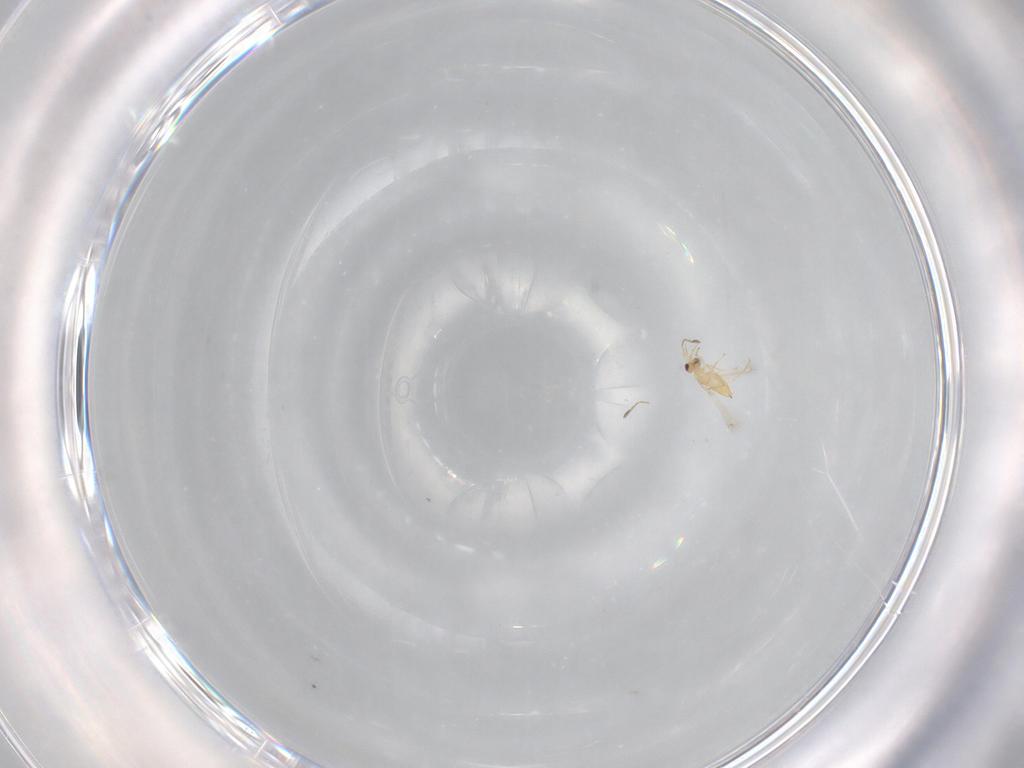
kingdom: Animalia
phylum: Arthropoda
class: Insecta
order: Hymenoptera
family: Mymaridae
